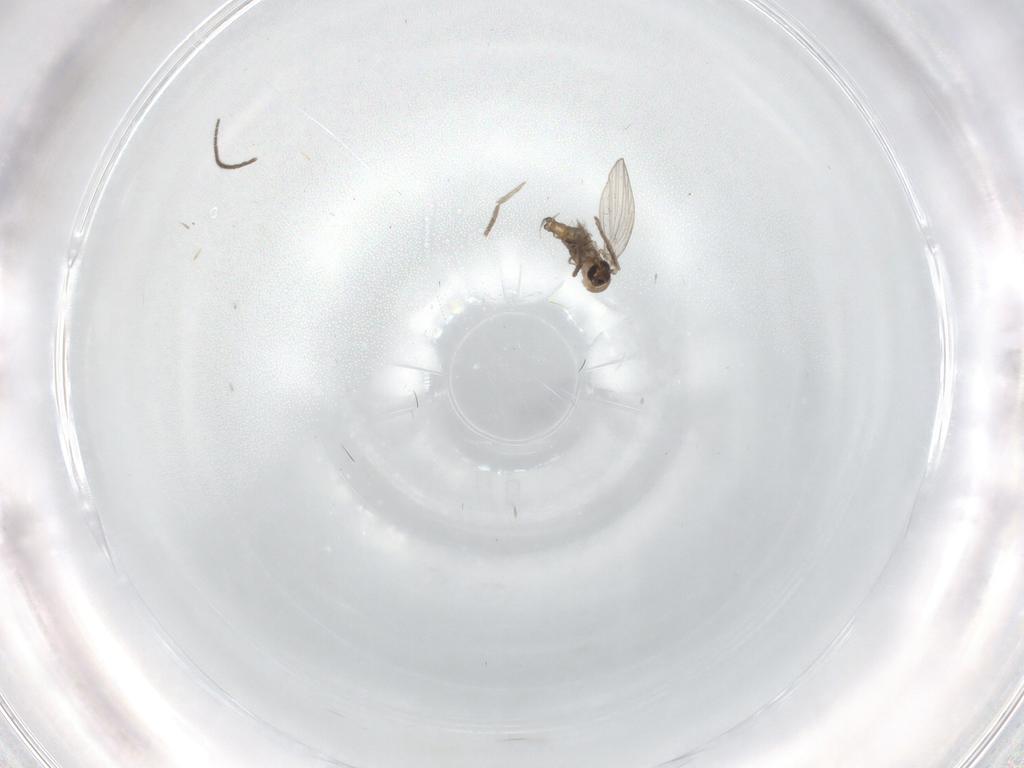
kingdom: Animalia
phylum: Arthropoda
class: Insecta
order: Diptera
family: Psychodidae
